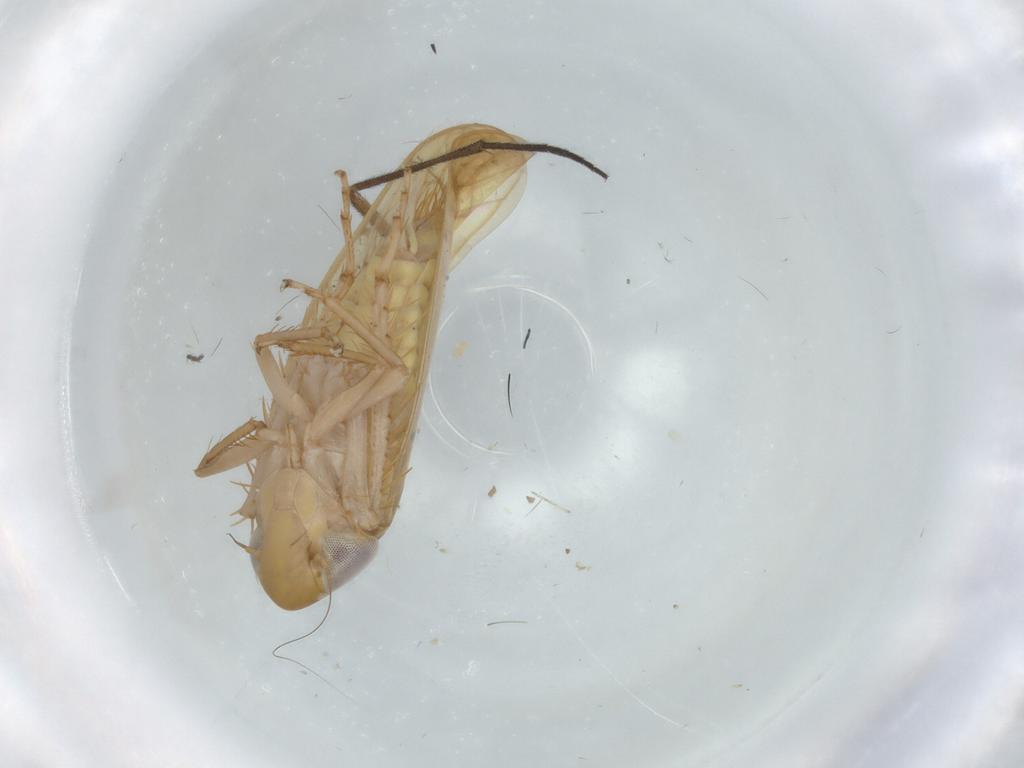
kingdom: Animalia
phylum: Arthropoda
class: Insecta
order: Hemiptera
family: Cicadellidae
